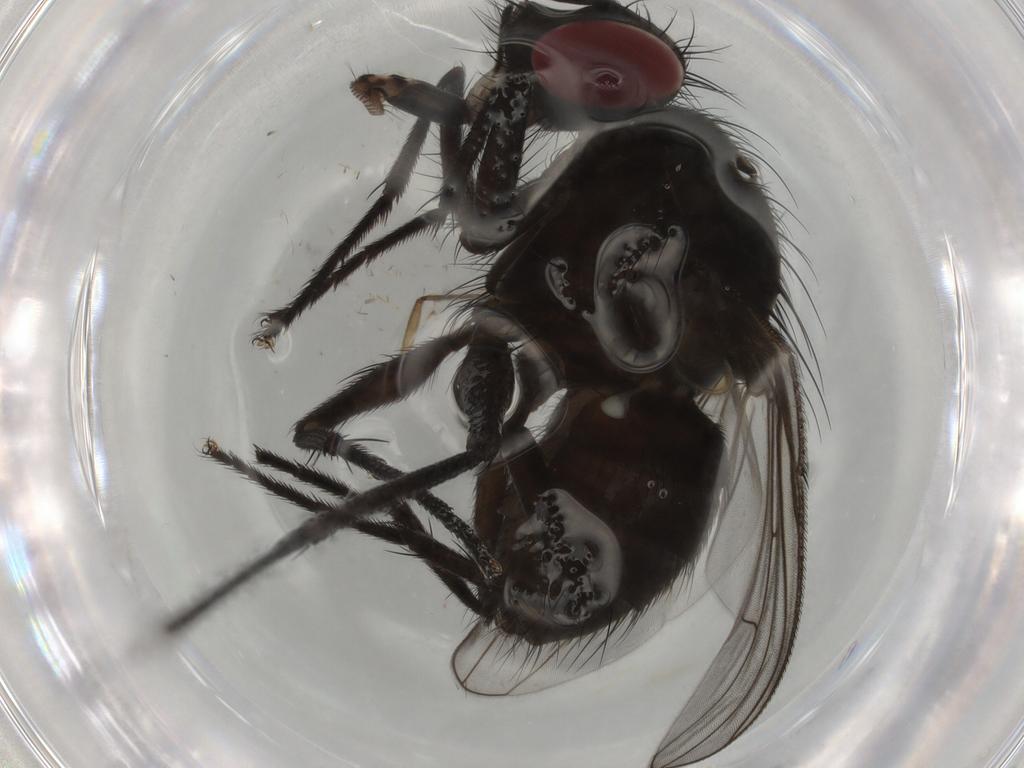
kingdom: Animalia
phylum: Arthropoda
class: Insecta
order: Diptera
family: Muscidae
